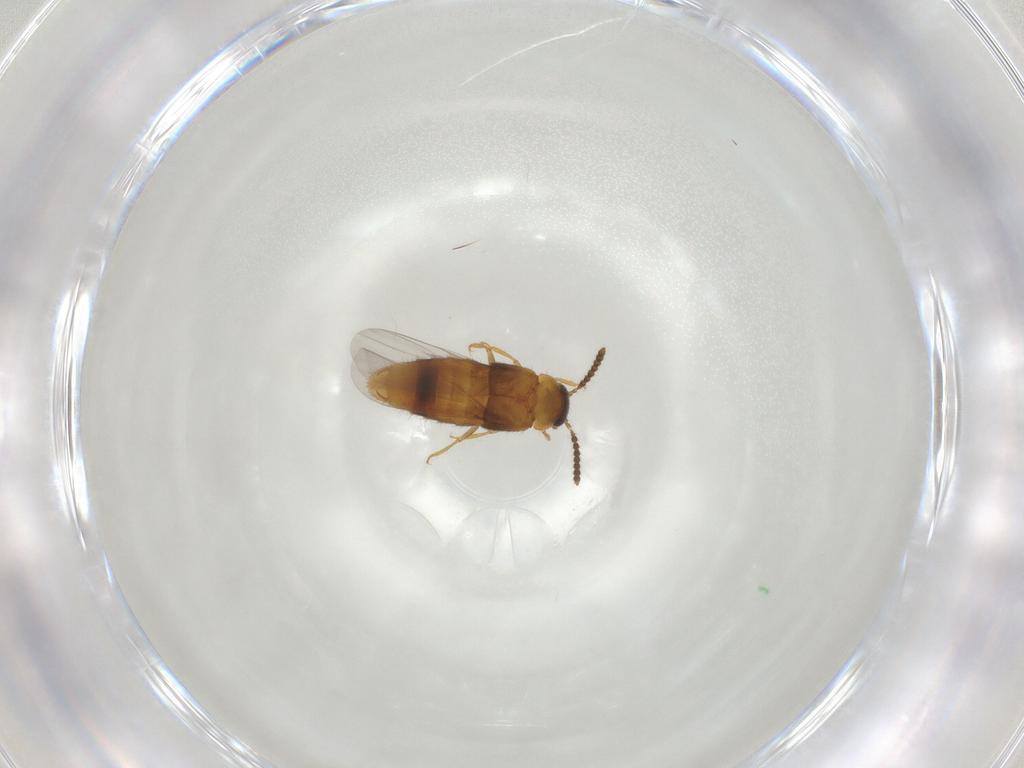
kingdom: Animalia
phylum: Arthropoda
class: Insecta
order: Coleoptera
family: Staphylinidae
